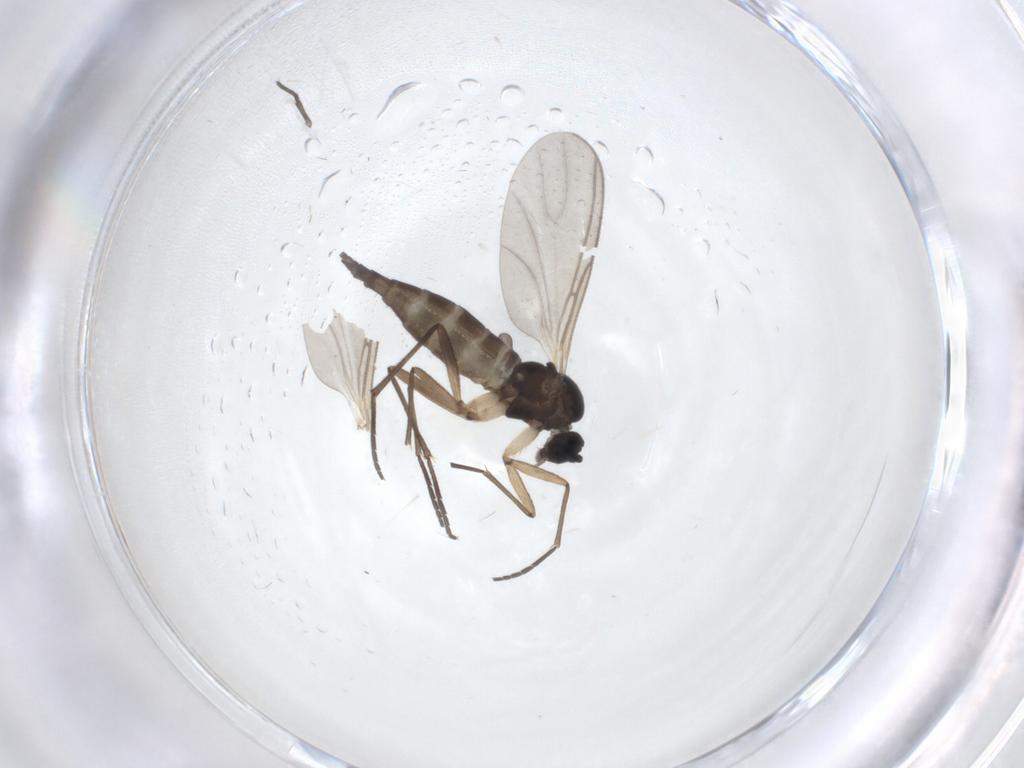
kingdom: Animalia
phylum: Arthropoda
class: Insecta
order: Diptera
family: Sciaridae
